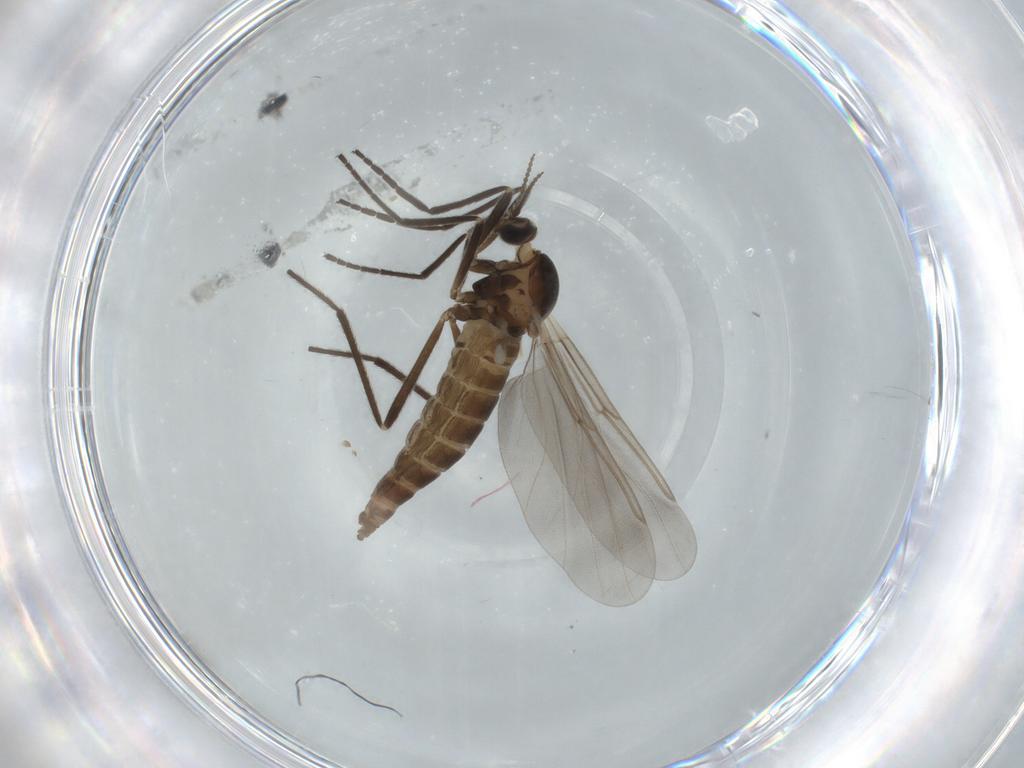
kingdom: Animalia
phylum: Arthropoda
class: Insecta
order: Diptera
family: Cecidomyiidae
